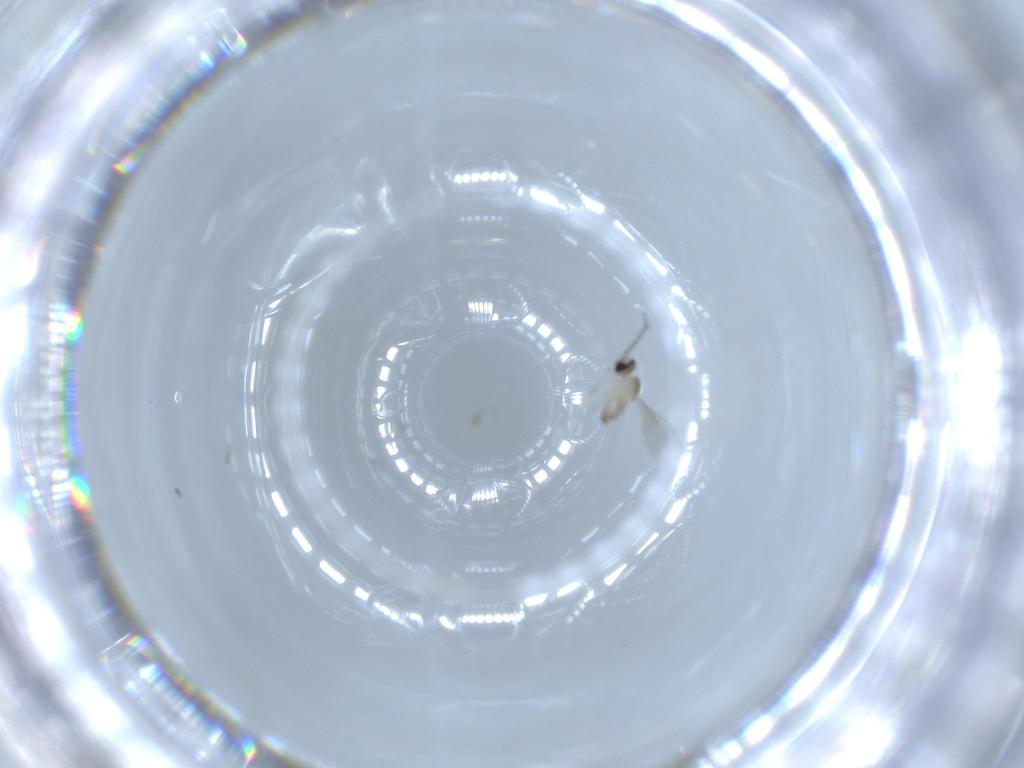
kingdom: Animalia
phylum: Arthropoda
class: Insecta
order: Diptera
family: Cecidomyiidae
